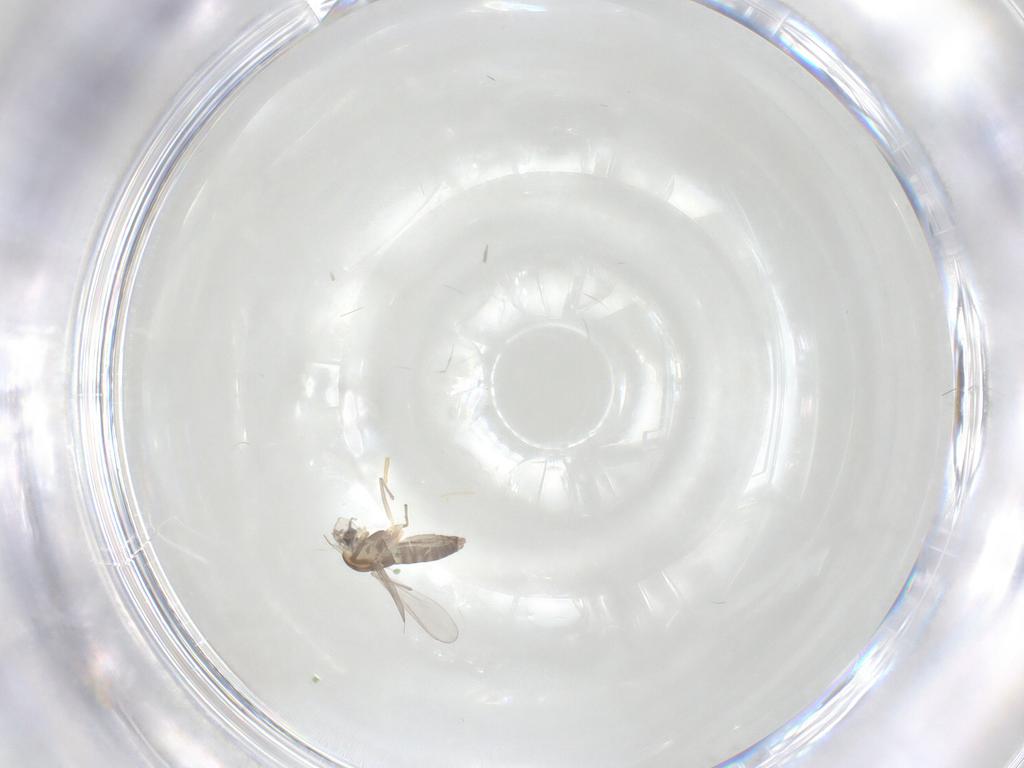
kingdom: Animalia
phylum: Arthropoda
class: Insecta
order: Diptera
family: Chironomidae
